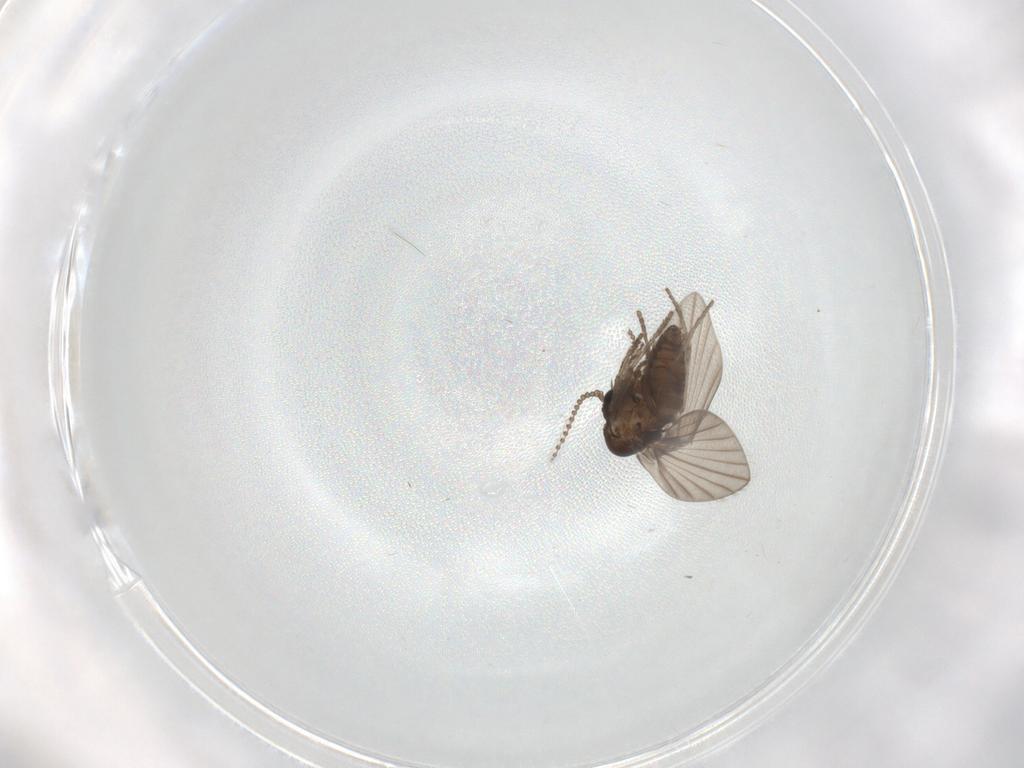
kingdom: Animalia
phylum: Arthropoda
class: Insecta
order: Diptera
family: Psychodidae
